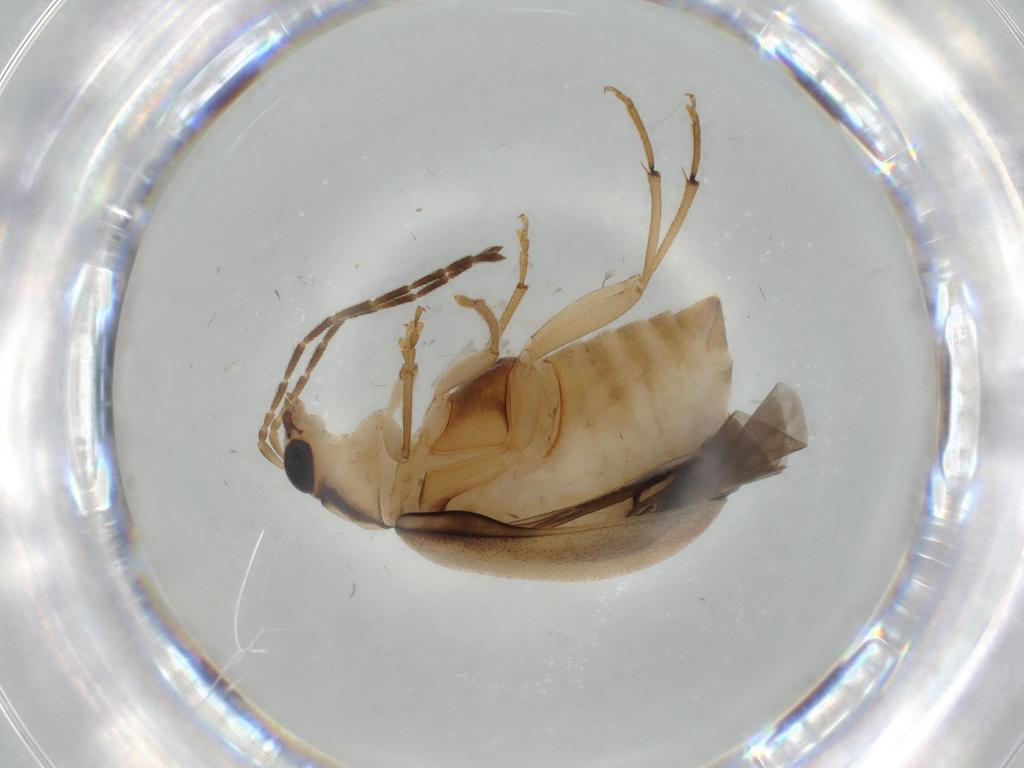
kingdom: Animalia
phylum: Arthropoda
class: Insecta
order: Coleoptera
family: Chrysomelidae
